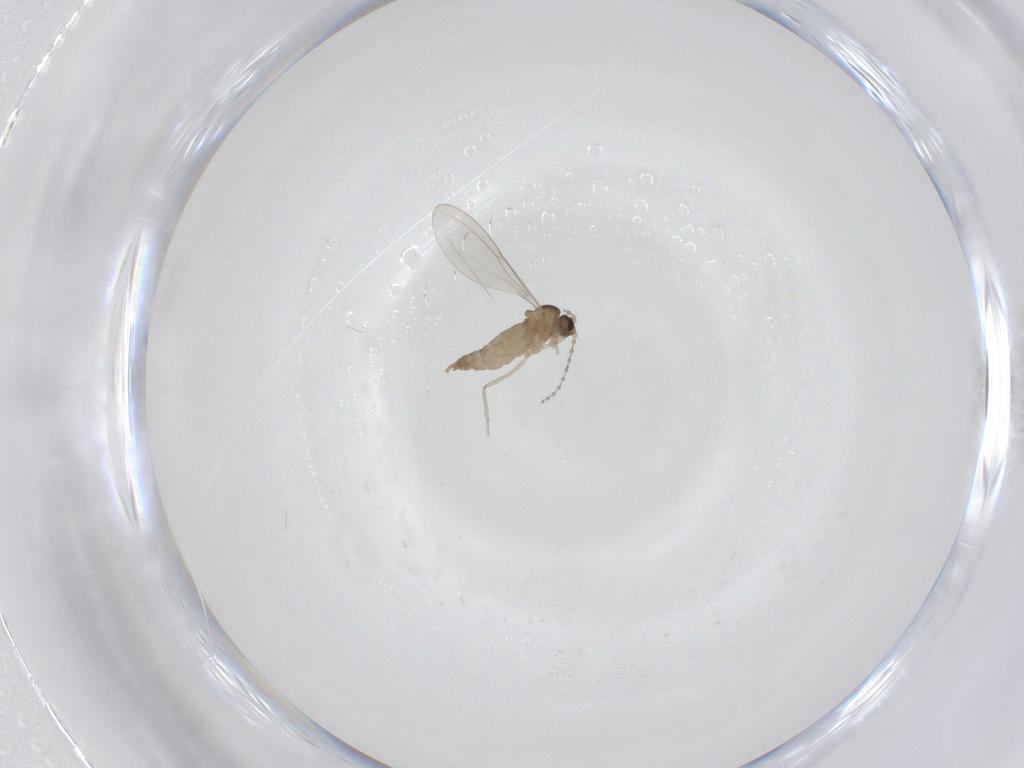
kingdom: Animalia
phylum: Arthropoda
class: Insecta
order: Diptera
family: Cecidomyiidae
